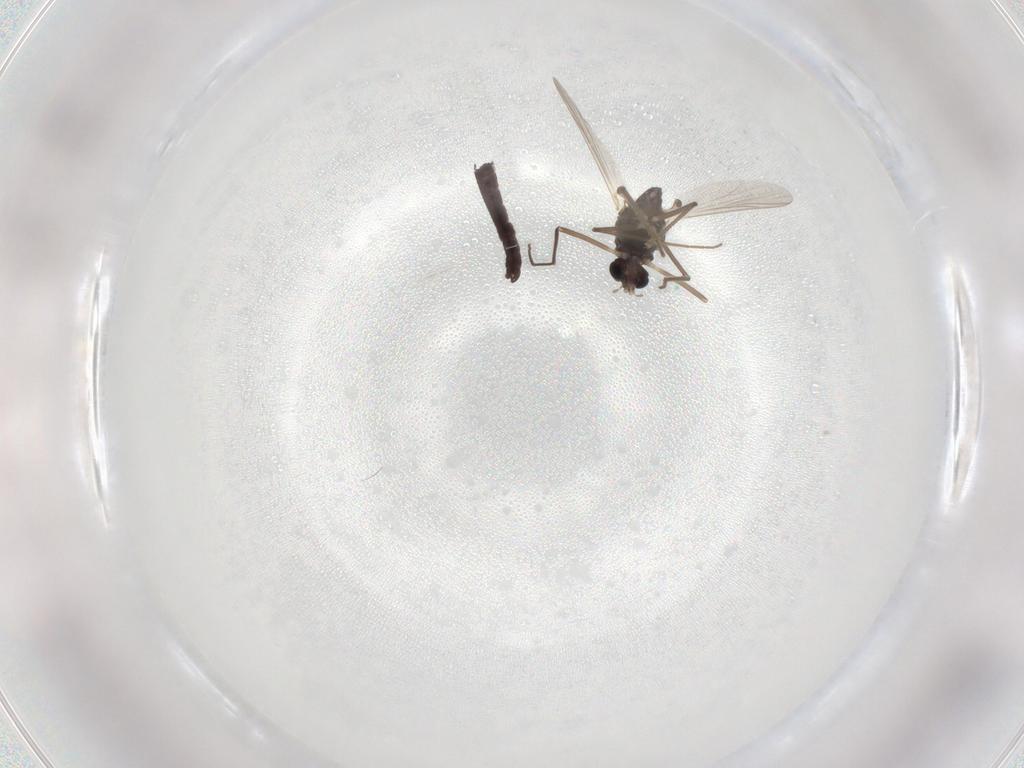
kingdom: Animalia
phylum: Arthropoda
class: Insecta
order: Diptera
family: Chironomidae
